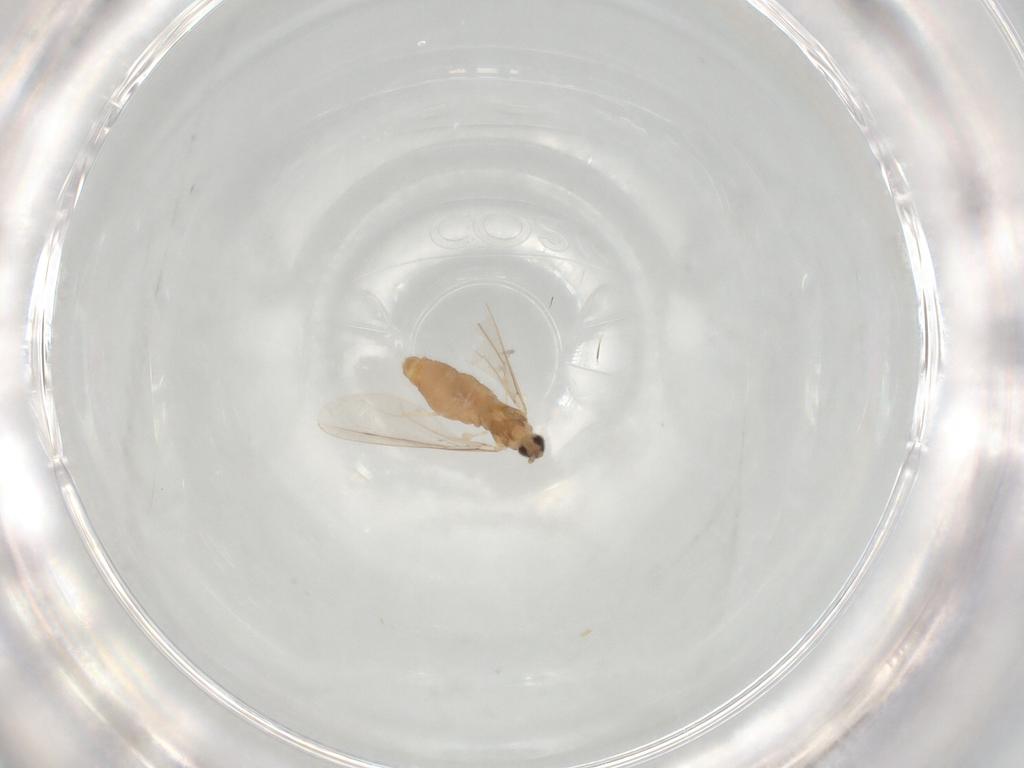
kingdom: Animalia
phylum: Arthropoda
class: Insecta
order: Diptera
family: Cecidomyiidae
